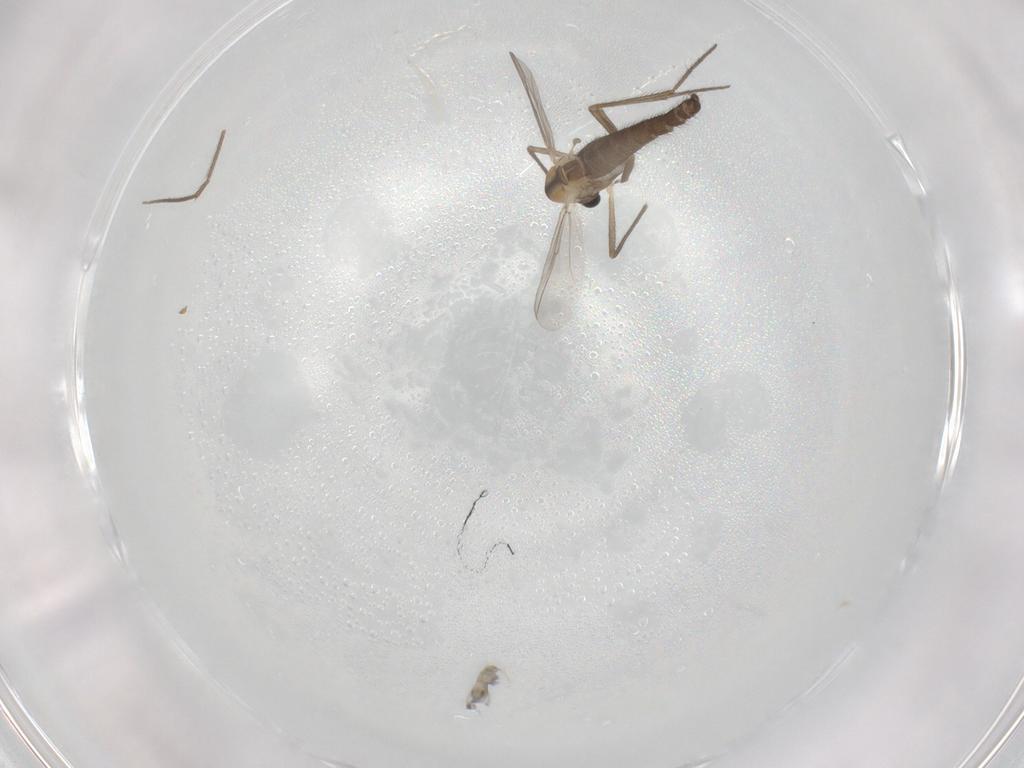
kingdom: Animalia
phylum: Arthropoda
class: Insecta
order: Diptera
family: Chironomidae
